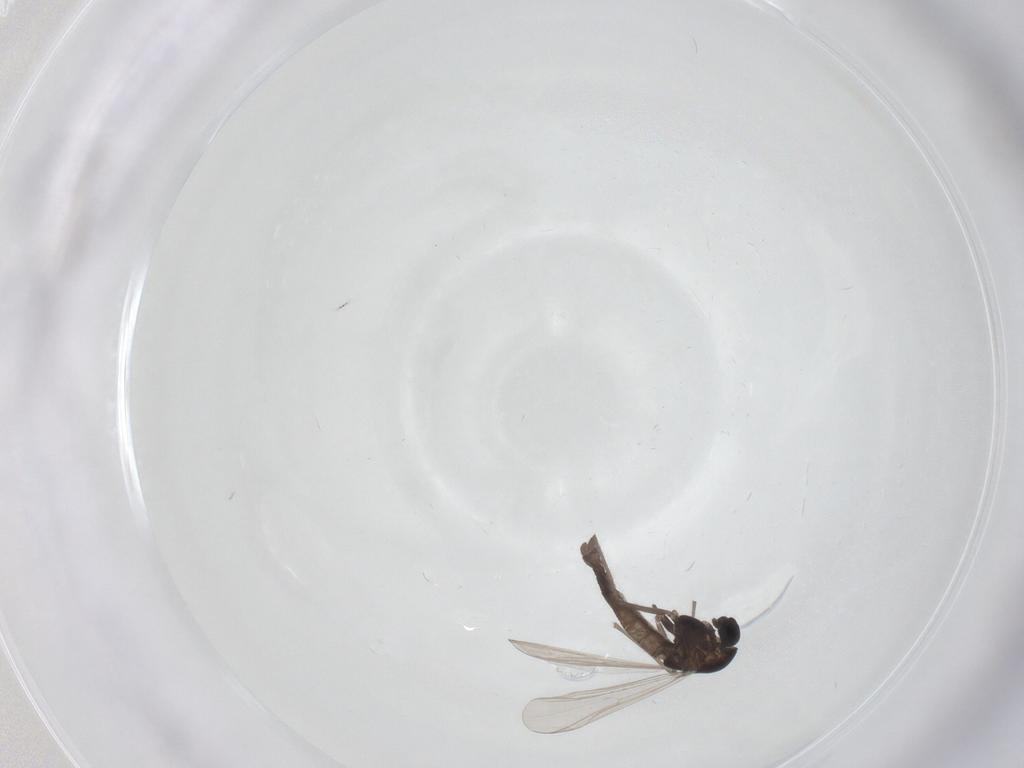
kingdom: Animalia
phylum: Arthropoda
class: Insecta
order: Diptera
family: Chironomidae
